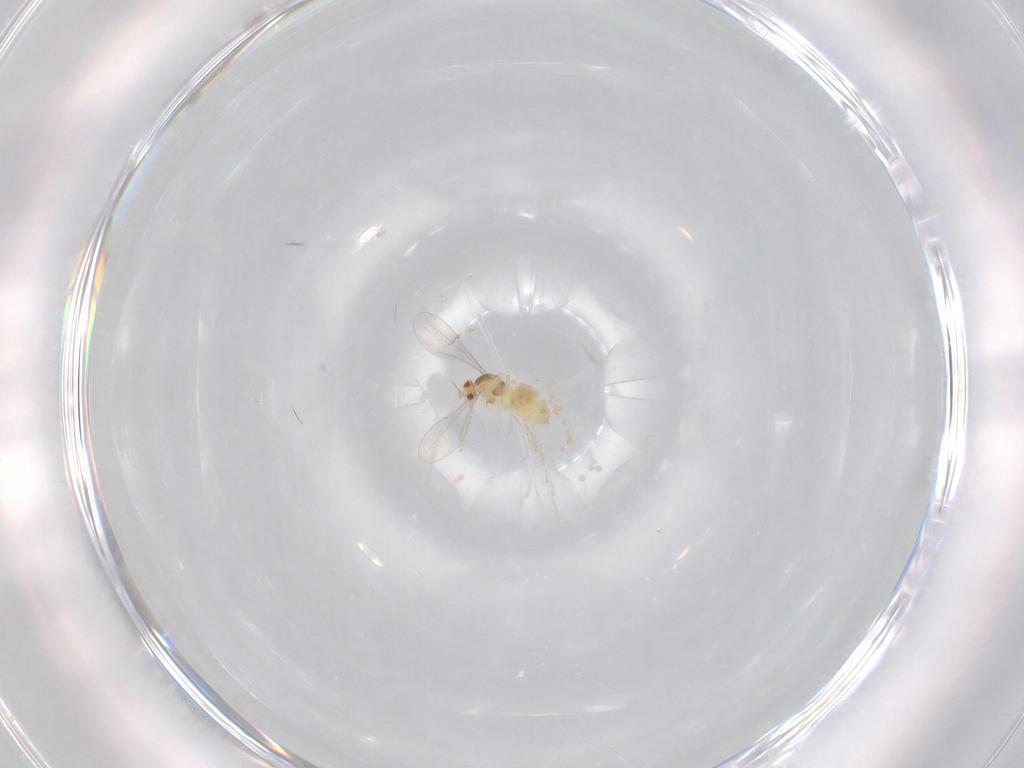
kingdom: Animalia
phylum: Arthropoda
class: Insecta
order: Diptera
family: Cecidomyiidae
